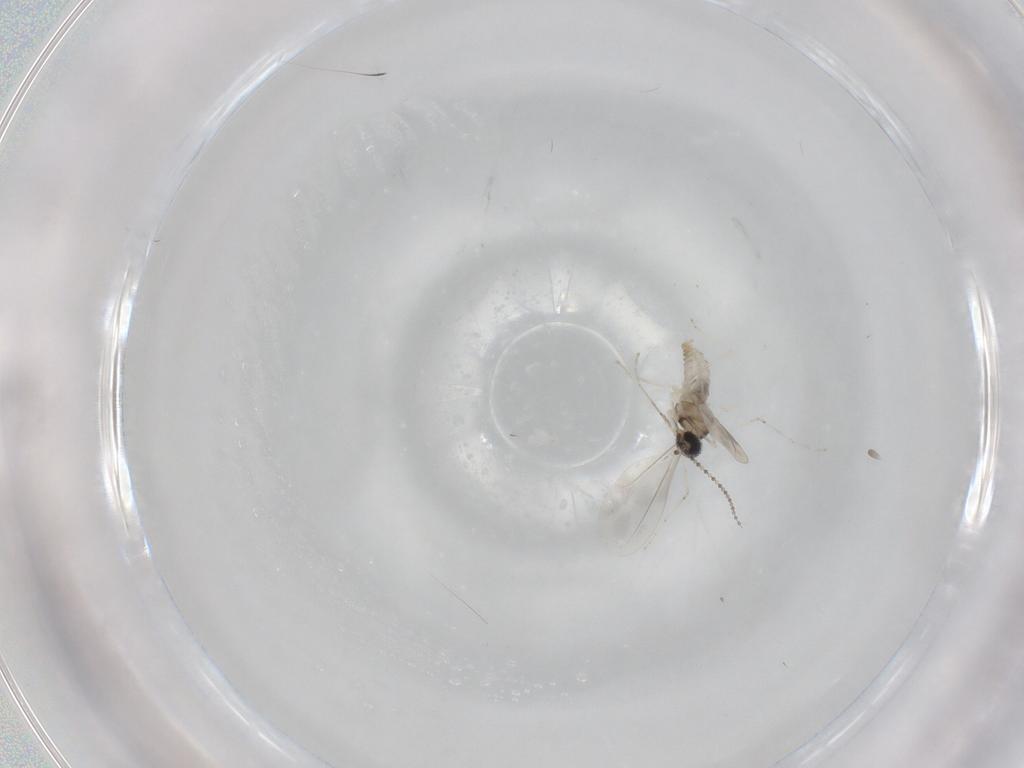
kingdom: Animalia
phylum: Arthropoda
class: Insecta
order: Diptera
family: Cecidomyiidae
